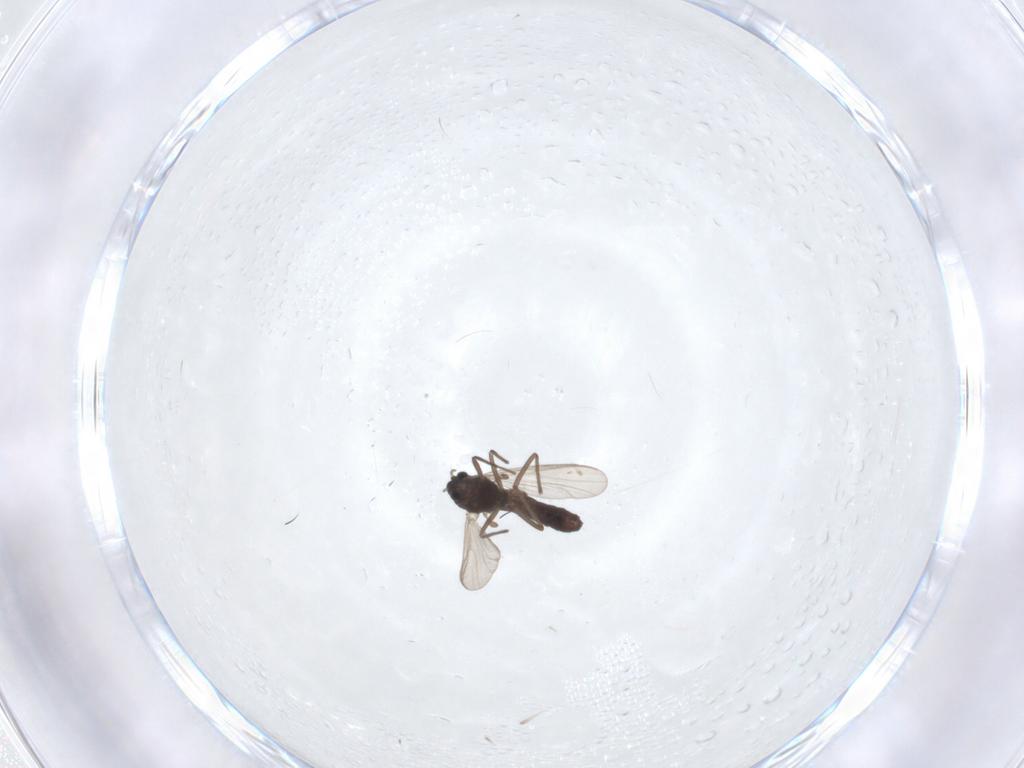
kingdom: Animalia
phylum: Arthropoda
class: Insecta
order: Diptera
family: Chironomidae
